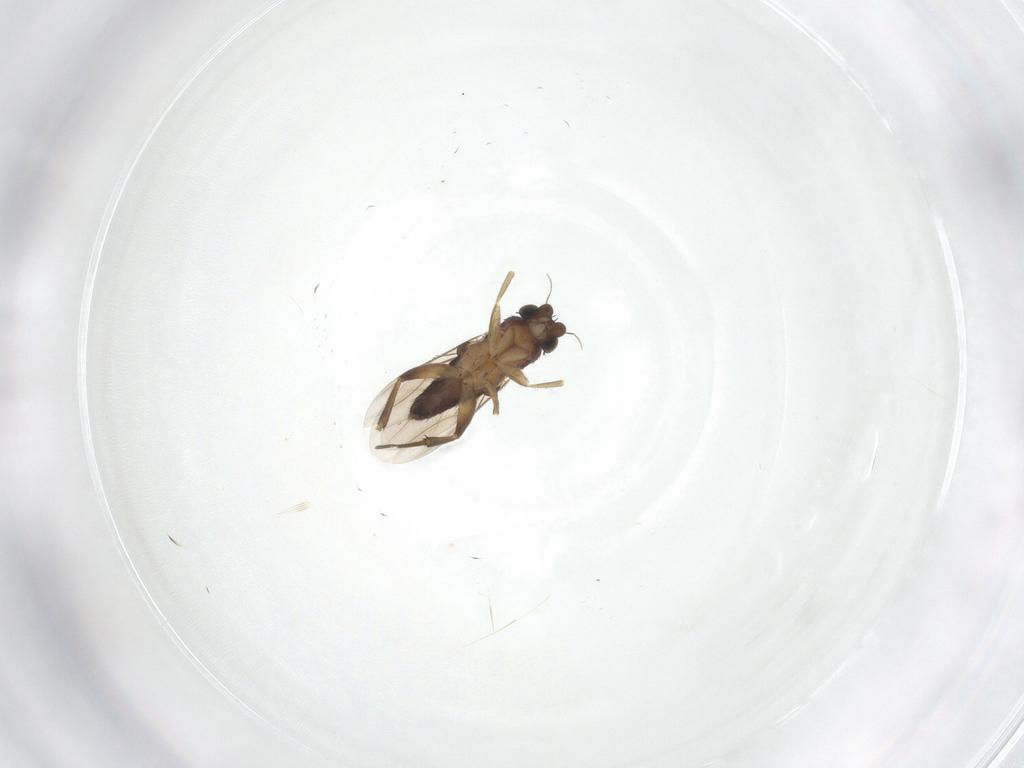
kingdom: Animalia
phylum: Arthropoda
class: Insecta
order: Diptera
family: Phoridae
